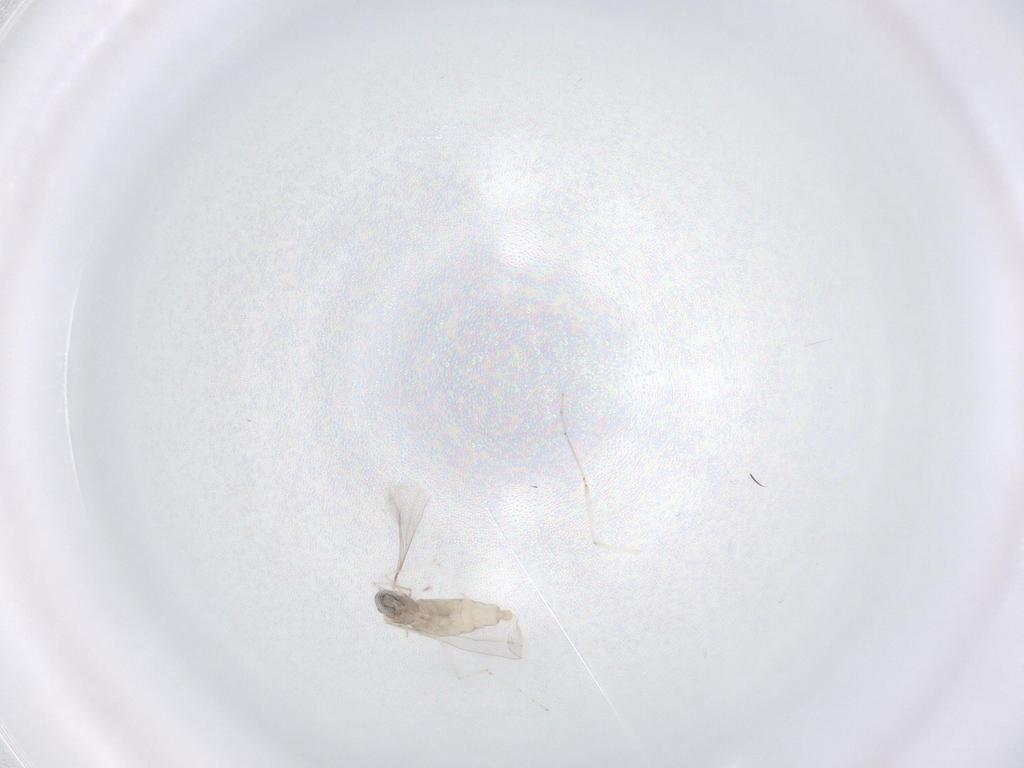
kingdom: Animalia
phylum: Arthropoda
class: Insecta
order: Diptera
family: Cecidomyiidae
